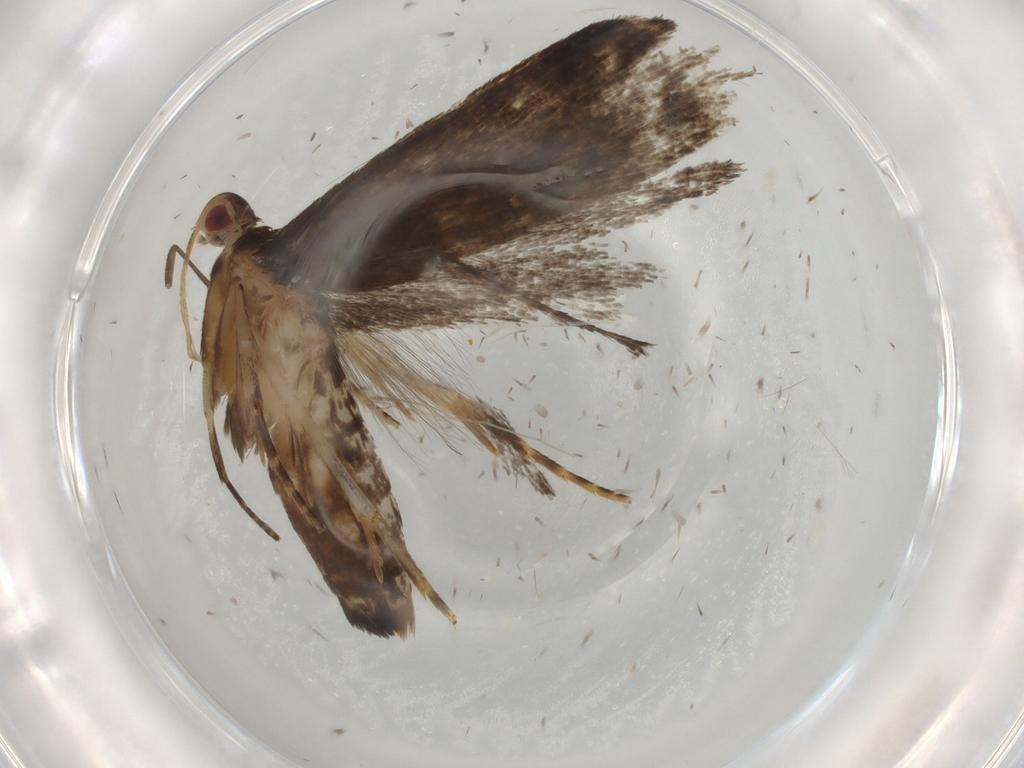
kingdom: Animalia
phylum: Arthropoda
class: Insecta
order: Lepidoptera
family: Gelechiidae
